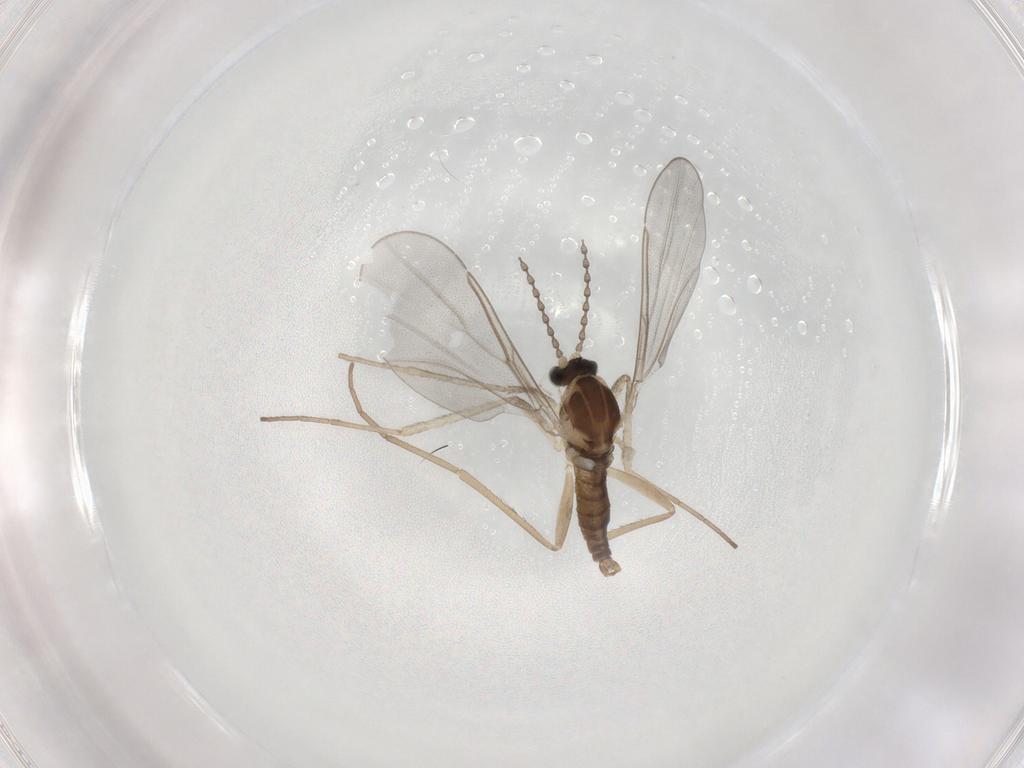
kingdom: Animalia
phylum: Arthropoda
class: Insecta
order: Diptera
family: Cecidomyiidae
